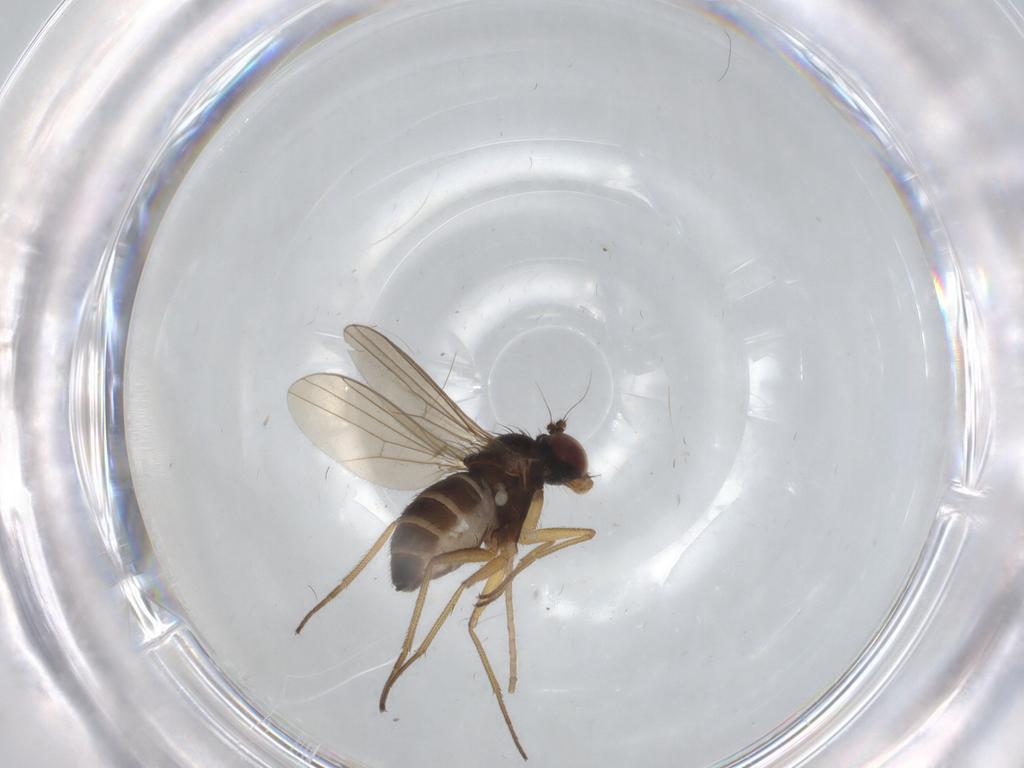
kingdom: Animalia
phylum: Arthropoda
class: Insecta
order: Diptera
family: Dolichopodidae
